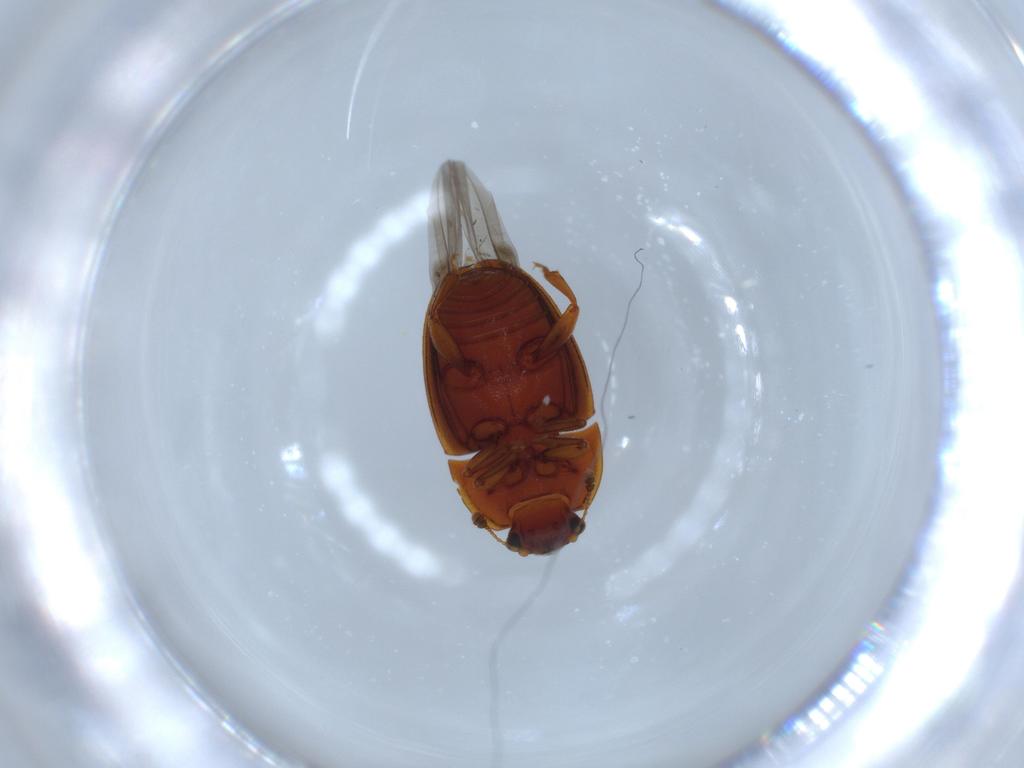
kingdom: Animalia
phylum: Arthropoda
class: Insecta
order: Coleoptera
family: Nitidulidae
